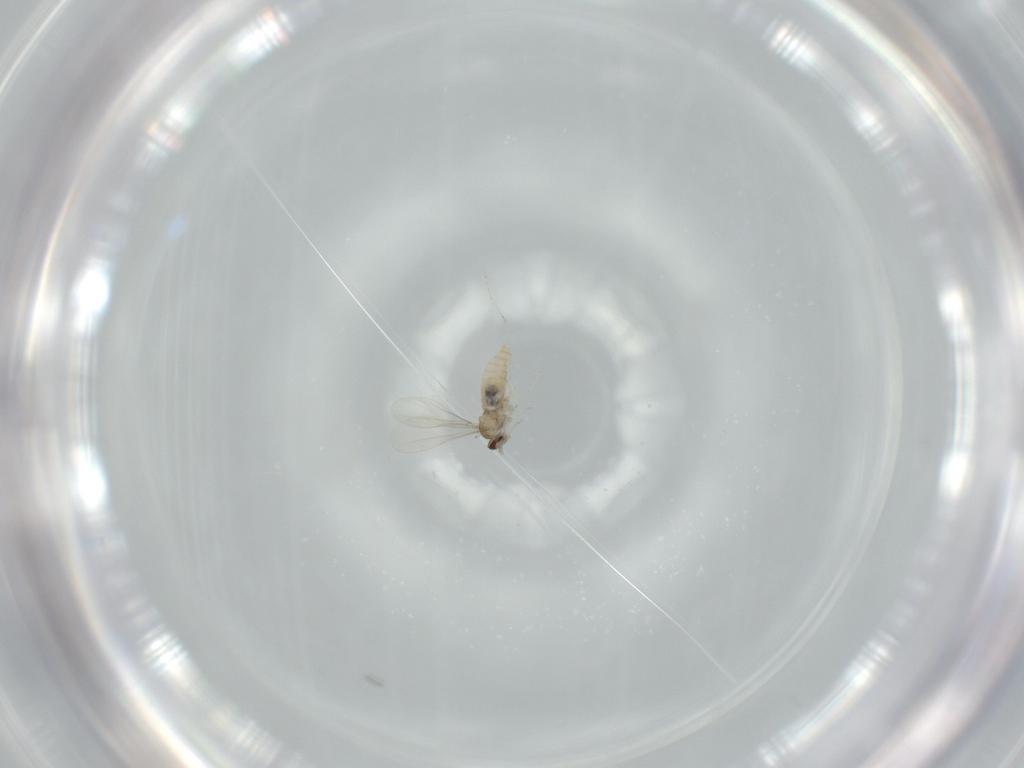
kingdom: Animalia
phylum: Arthropoda
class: Insecta
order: Diptera
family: Cecidomyiidae
